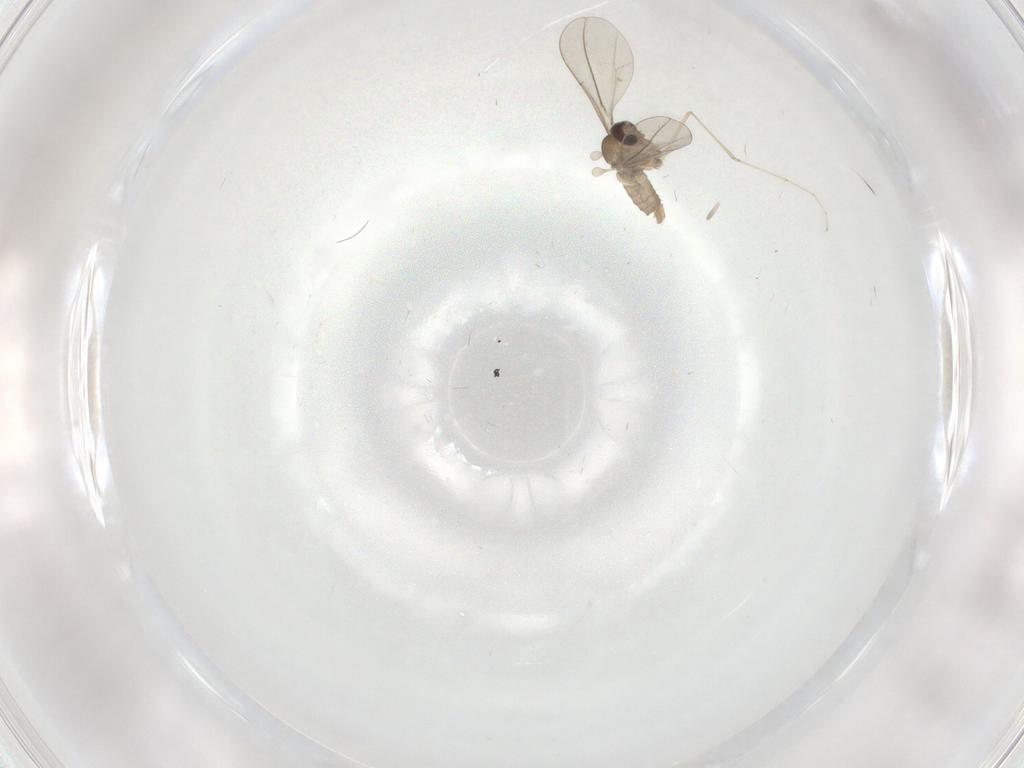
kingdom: Animalia
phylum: Arthropoda
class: Insecta
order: Diptera
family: Cecidomyiidae
